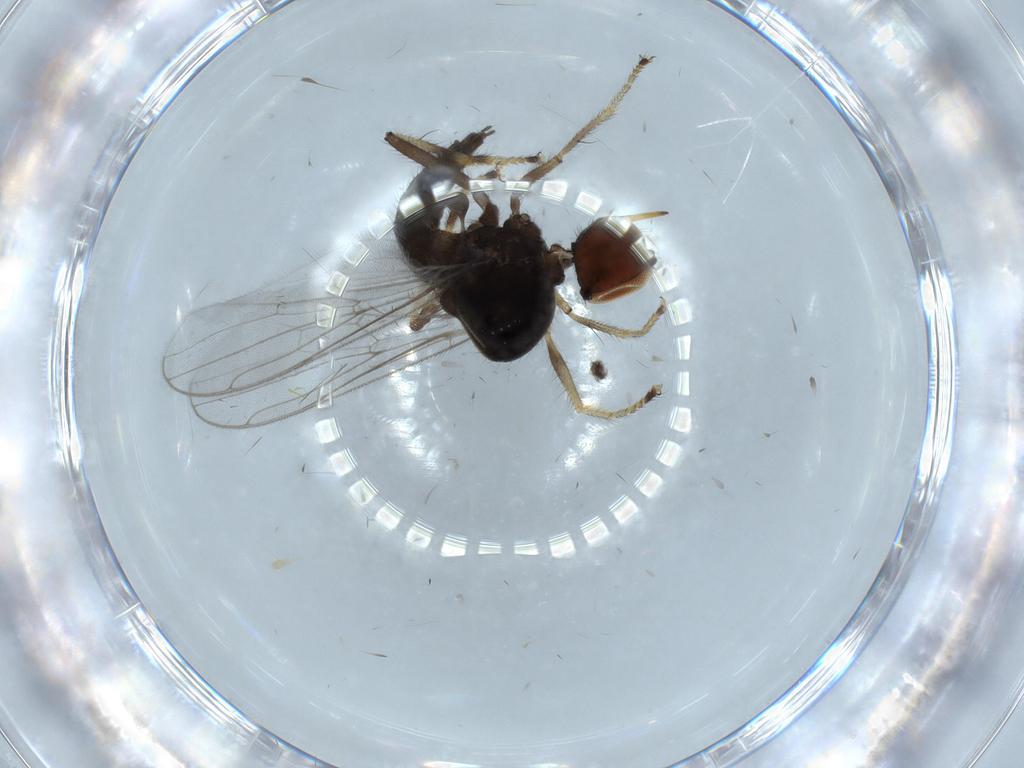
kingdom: Animalia
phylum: Arthropoda
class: Insecta
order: Diptera
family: Hybotidae
